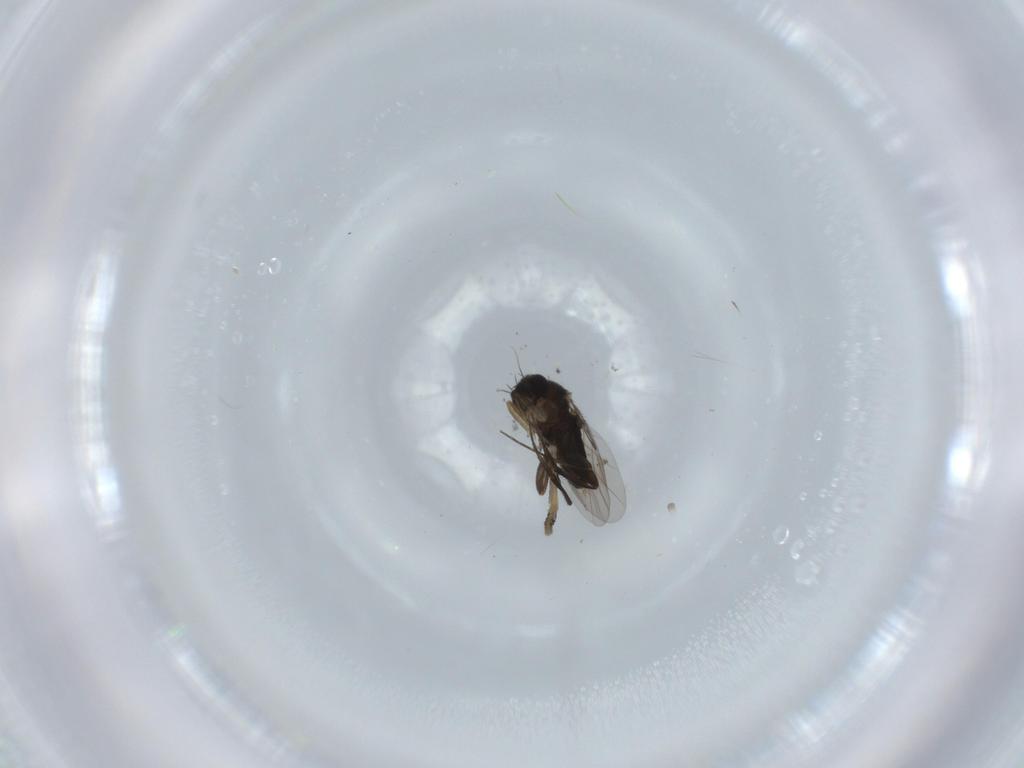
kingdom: Animalia
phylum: Arthropoda
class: Insecta
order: Diptera
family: Phoridae
